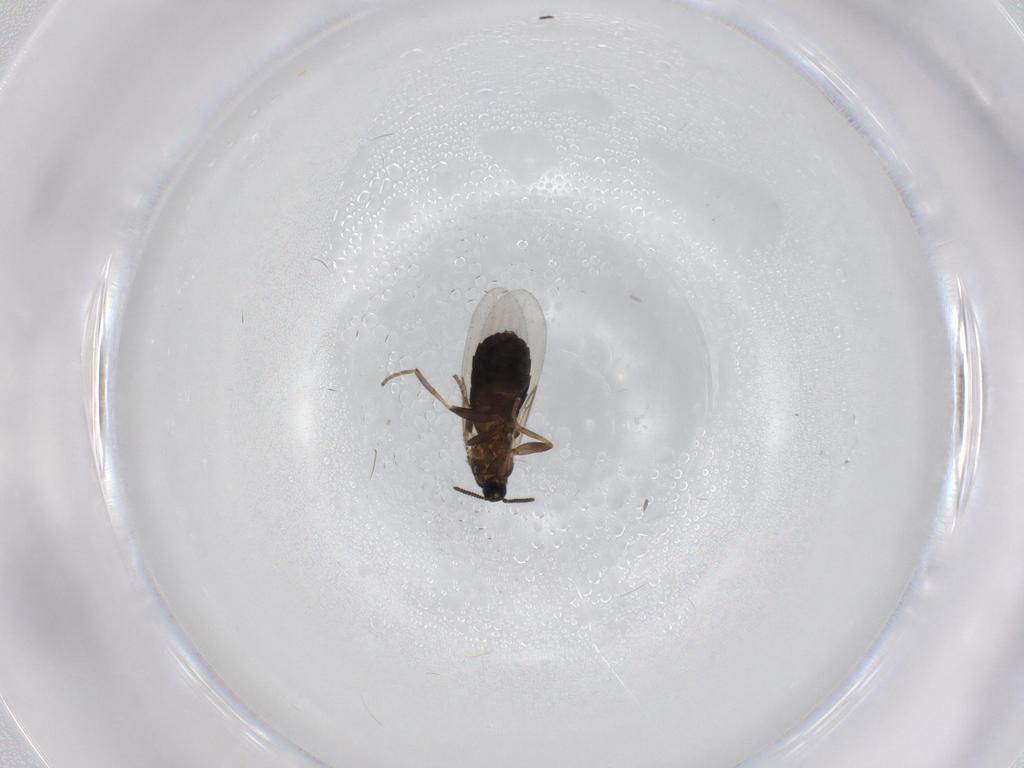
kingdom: Animalia
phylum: Arthropoda
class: Insecta
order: Diptera
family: Scatopsidae
